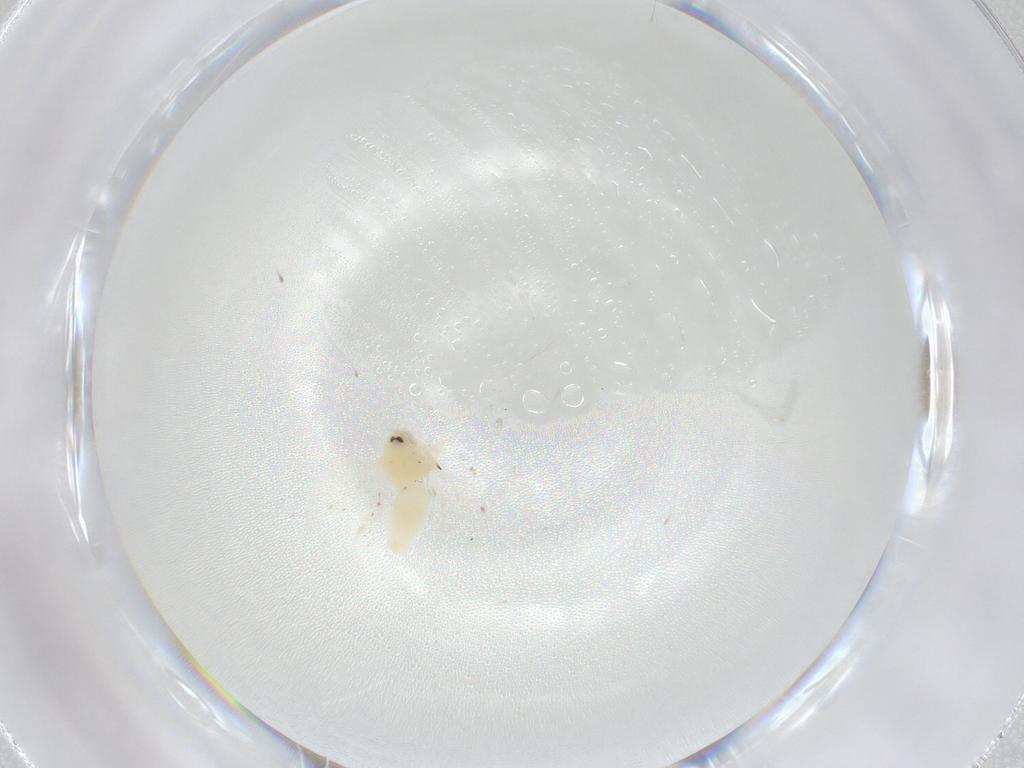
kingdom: Animalia
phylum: Arthropoda
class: Insecta
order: Hemiptera
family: Aleyrodidae
